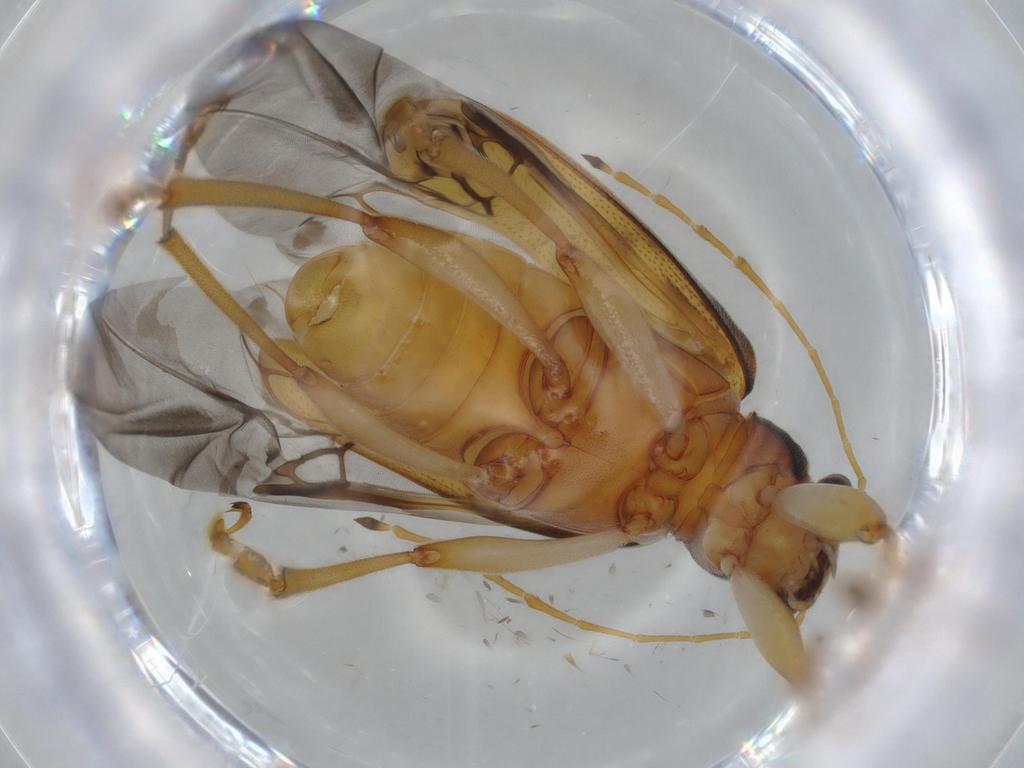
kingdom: Animalia
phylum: Arthropoda
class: Insecta
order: Coleoptera
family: Chrysomelidae
